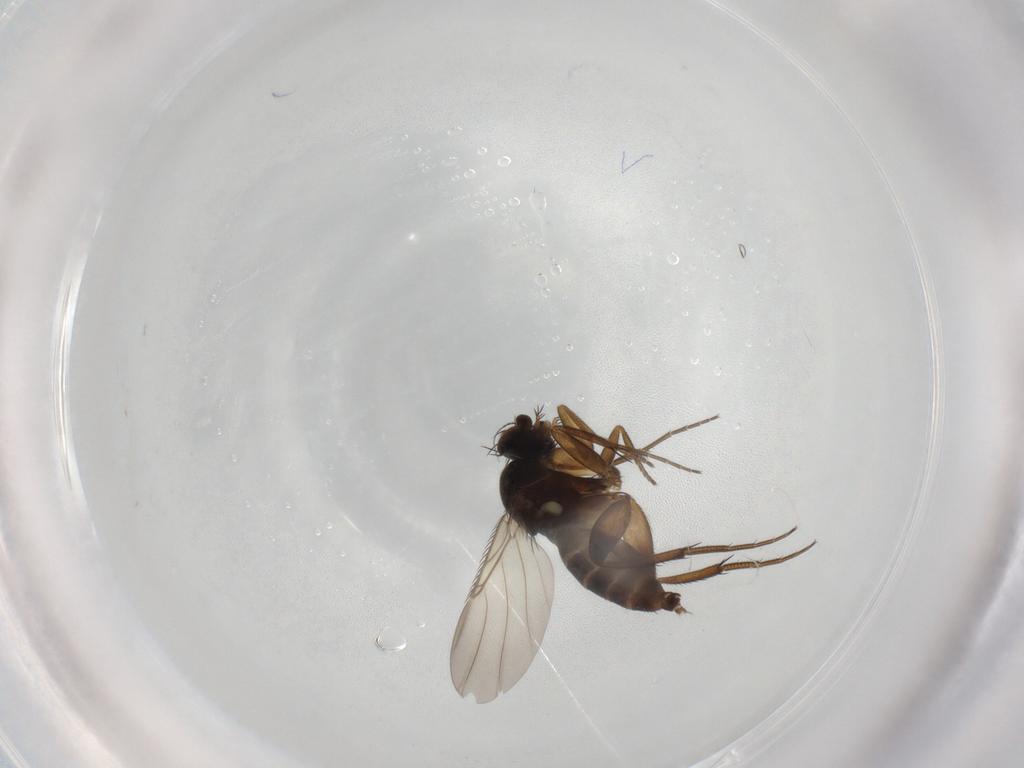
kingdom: Animalia
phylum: Arthropoda
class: Insecta
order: Diptera
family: Phoridae
